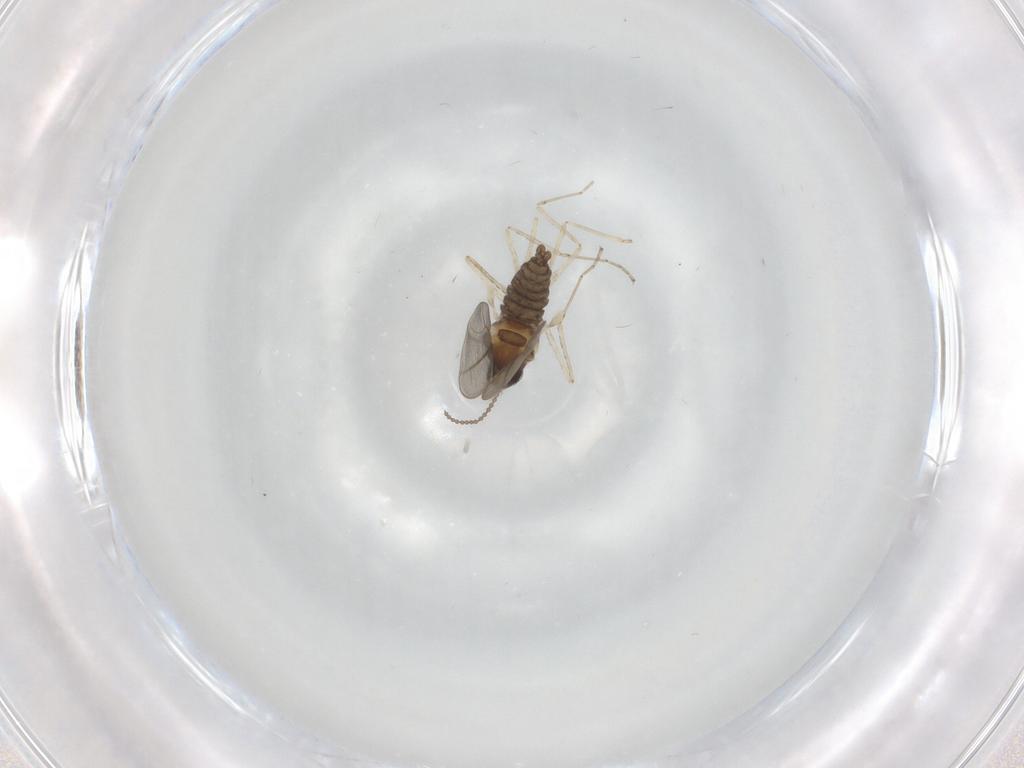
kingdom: Animalia
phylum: Arthropoda
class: Insecta
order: Diptera
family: Cecidomyiidae
